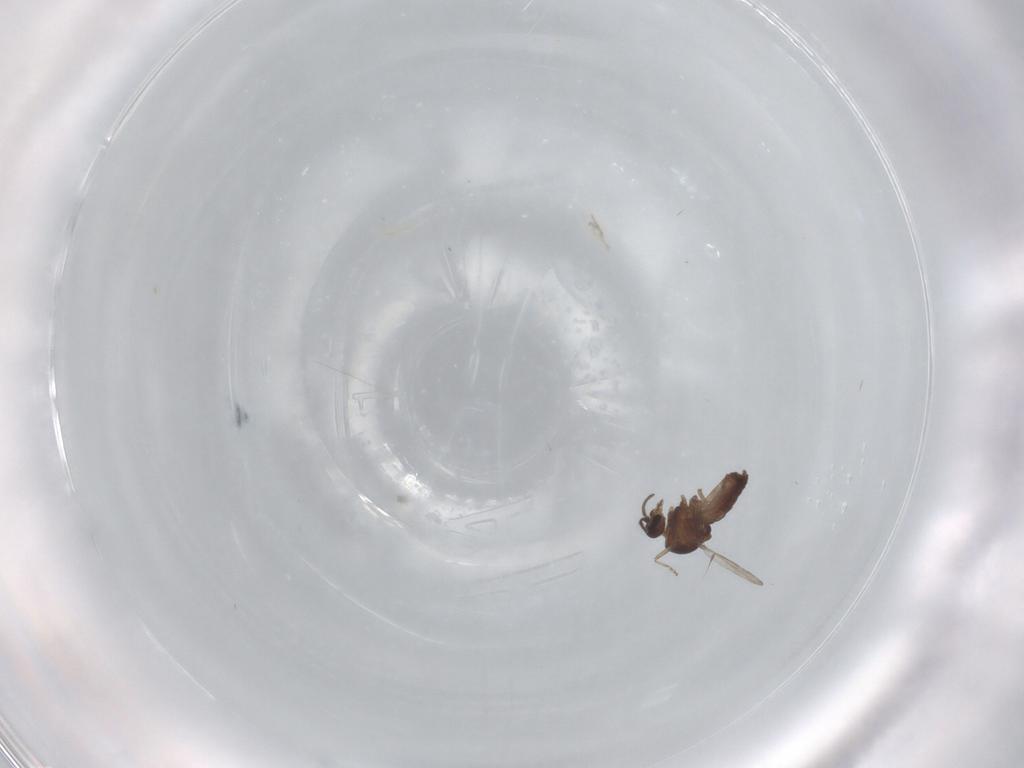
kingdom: Animalia
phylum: Arthropoda
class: Insecta
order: Diptera
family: Ceratopogonidae
